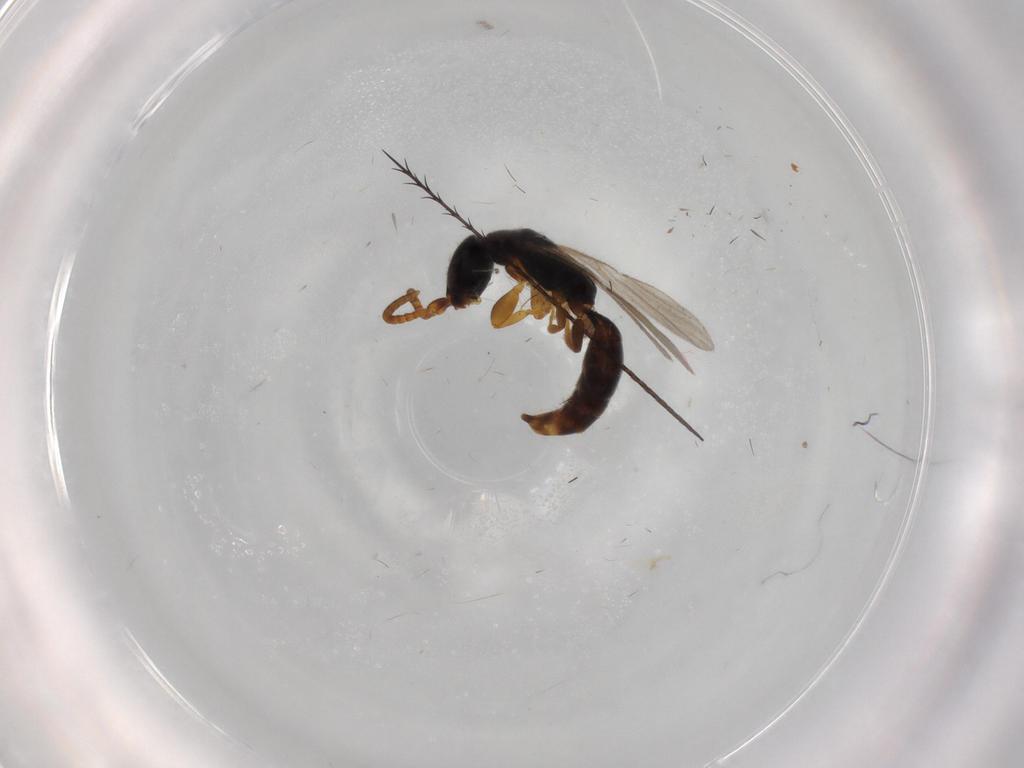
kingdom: Animalia
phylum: Arthropoda
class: Insecta
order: Hymenoptera
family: Bethylidae
